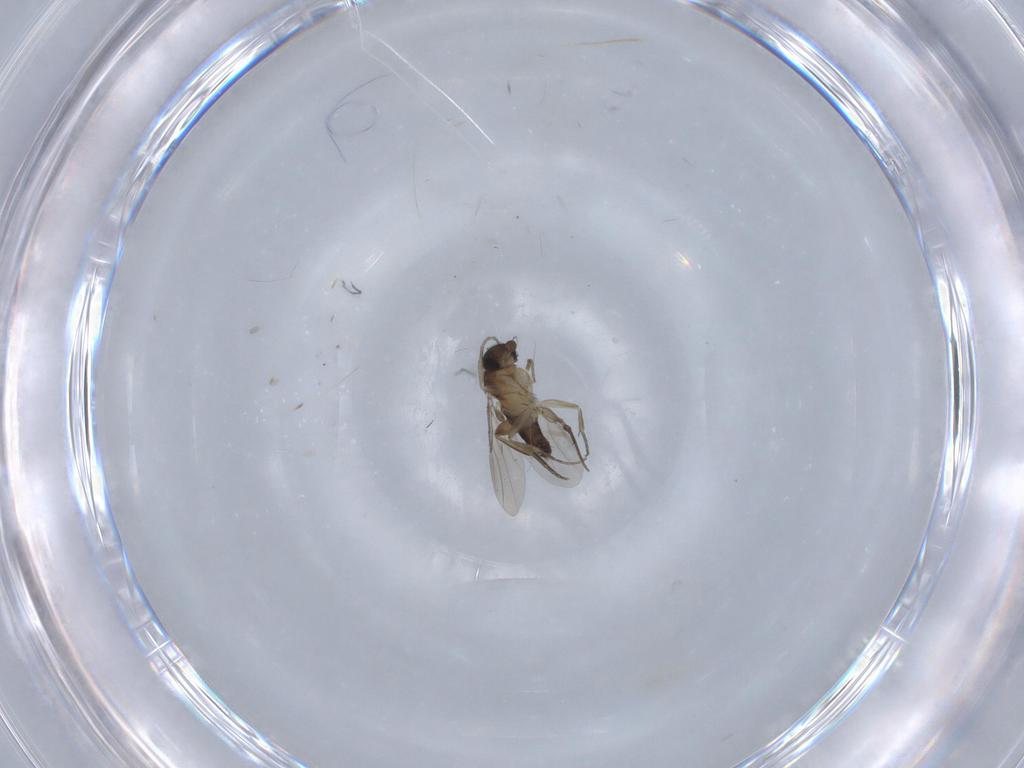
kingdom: Animalia
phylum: Arthropoda
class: Insecta
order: Diptera
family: Phoridae
